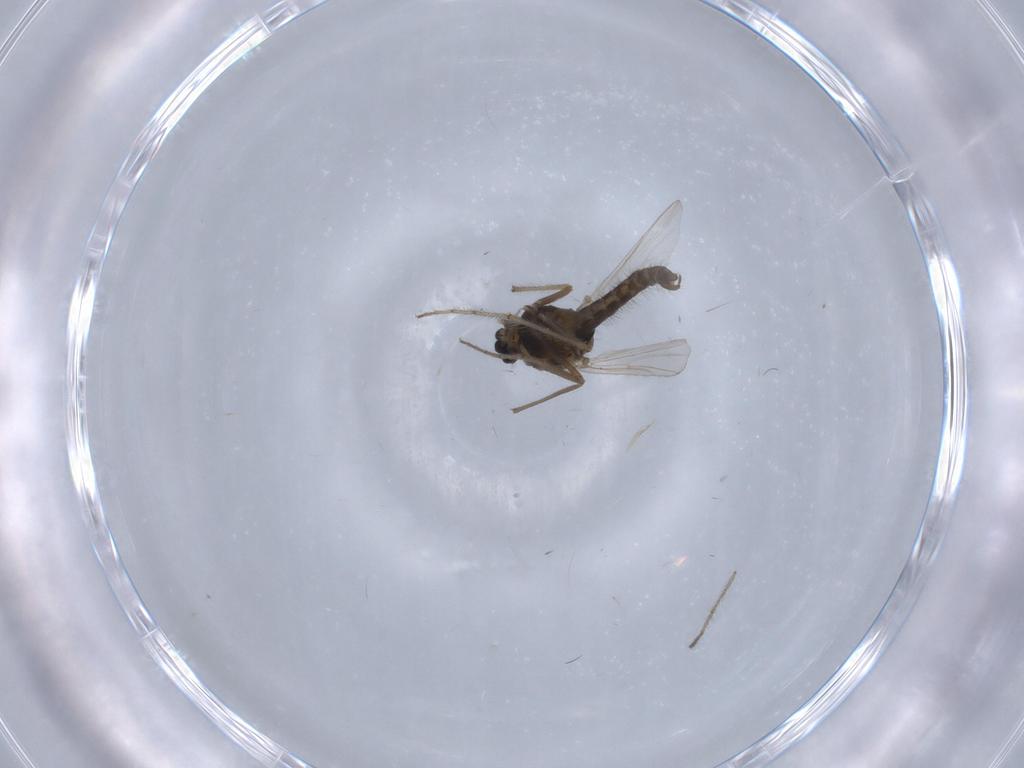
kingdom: Animalia
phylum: Arthropoda
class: Insecta
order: Diptera
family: Chironomidae
